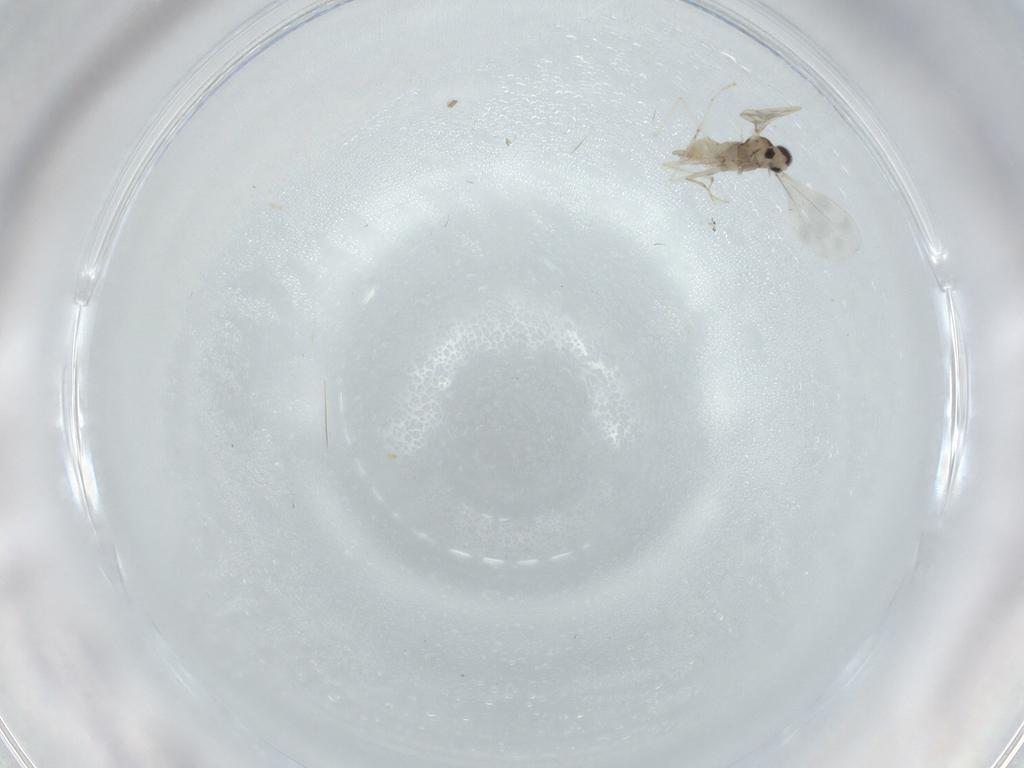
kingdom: Animalia
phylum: Arthropoda
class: Insecta
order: Diptera
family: Cecidomyiidae
